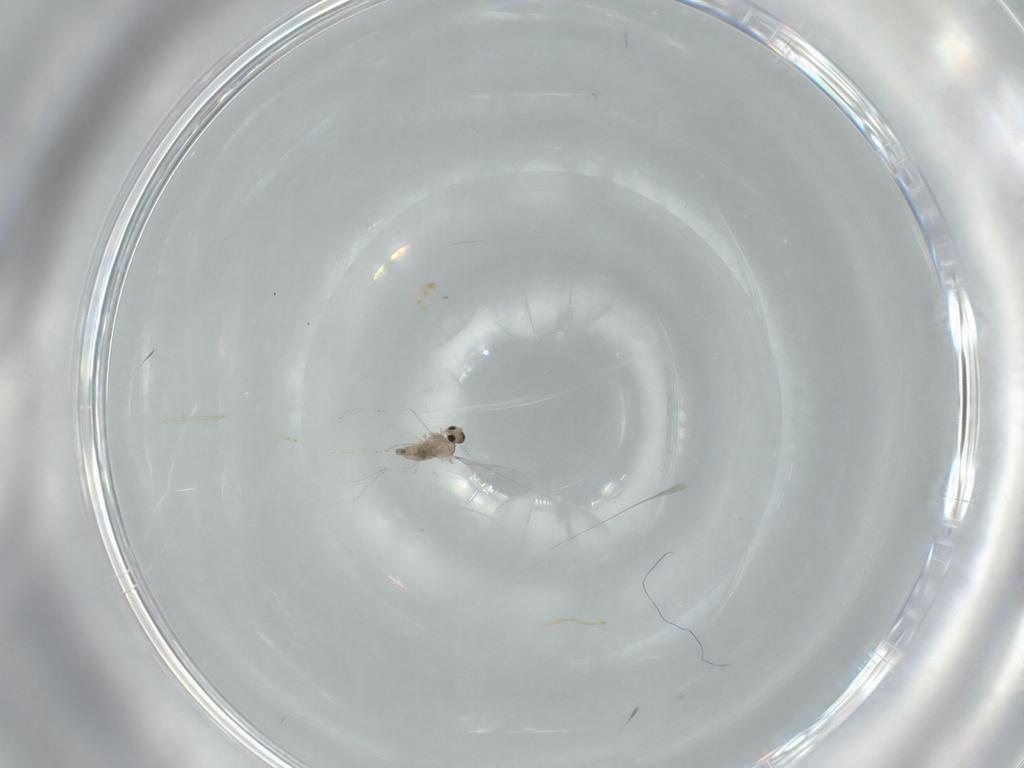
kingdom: Animalia
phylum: Arthropoda
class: Insecta
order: Diptera
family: Cecidomyiidae
